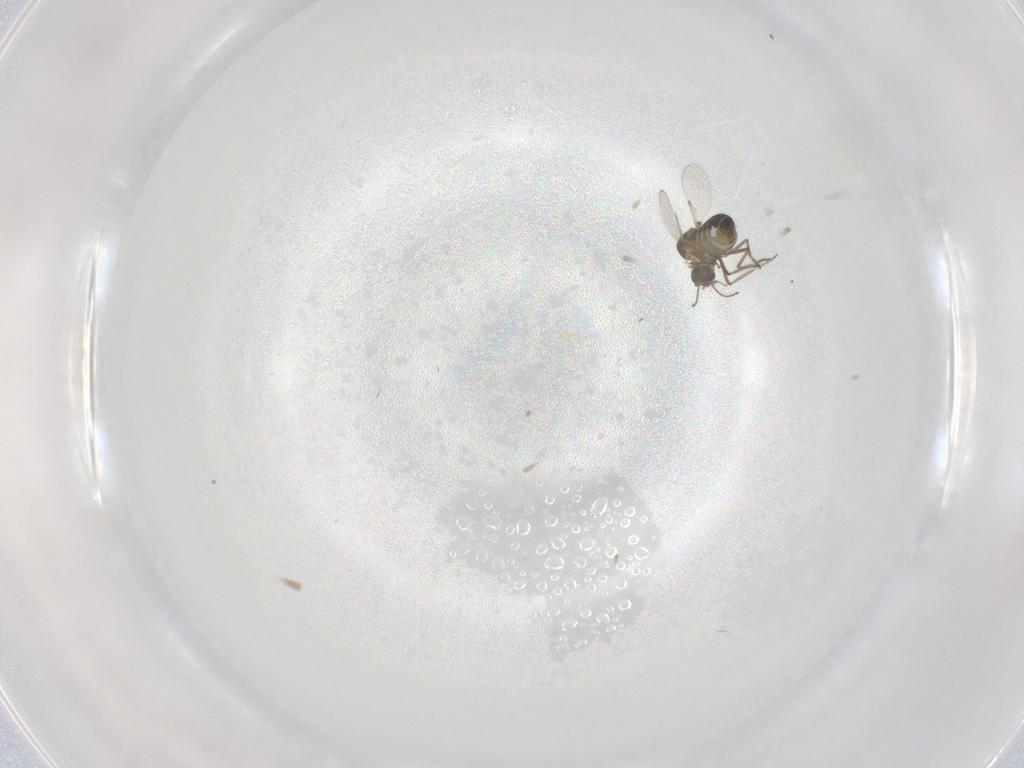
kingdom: Animalia
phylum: Arthropoda
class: Insecta
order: Diptera
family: Ceratopogonidae
